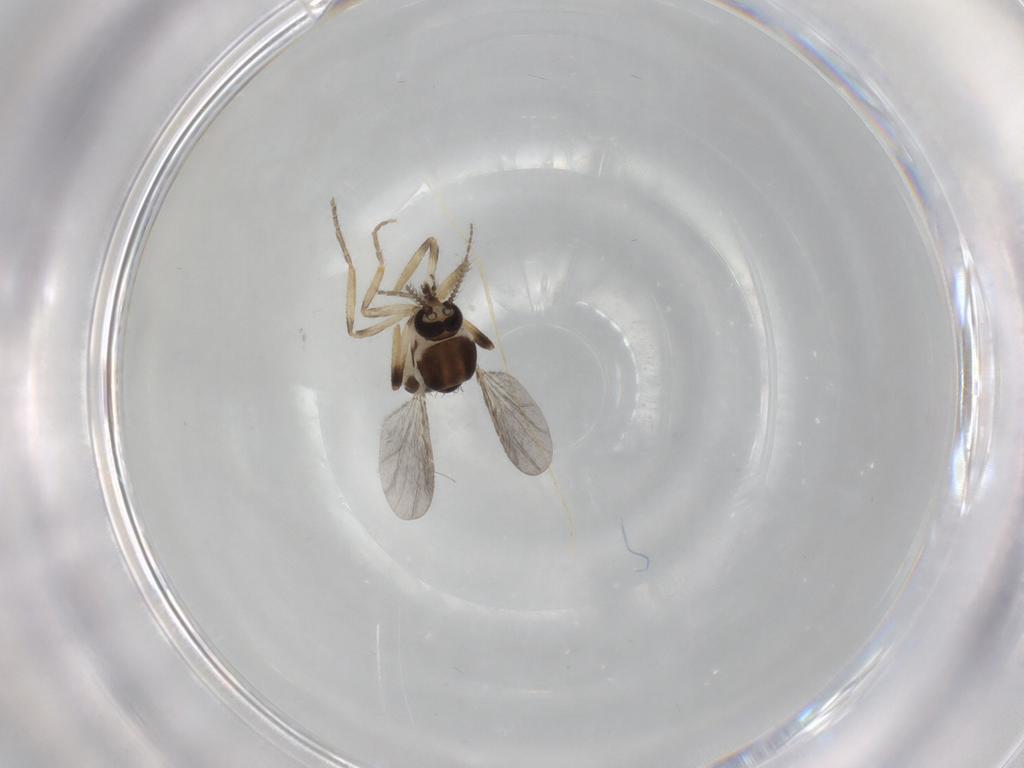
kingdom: Animalia
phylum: Arthropoda
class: Insecta
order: Diptera
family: Ceratopogonidae
